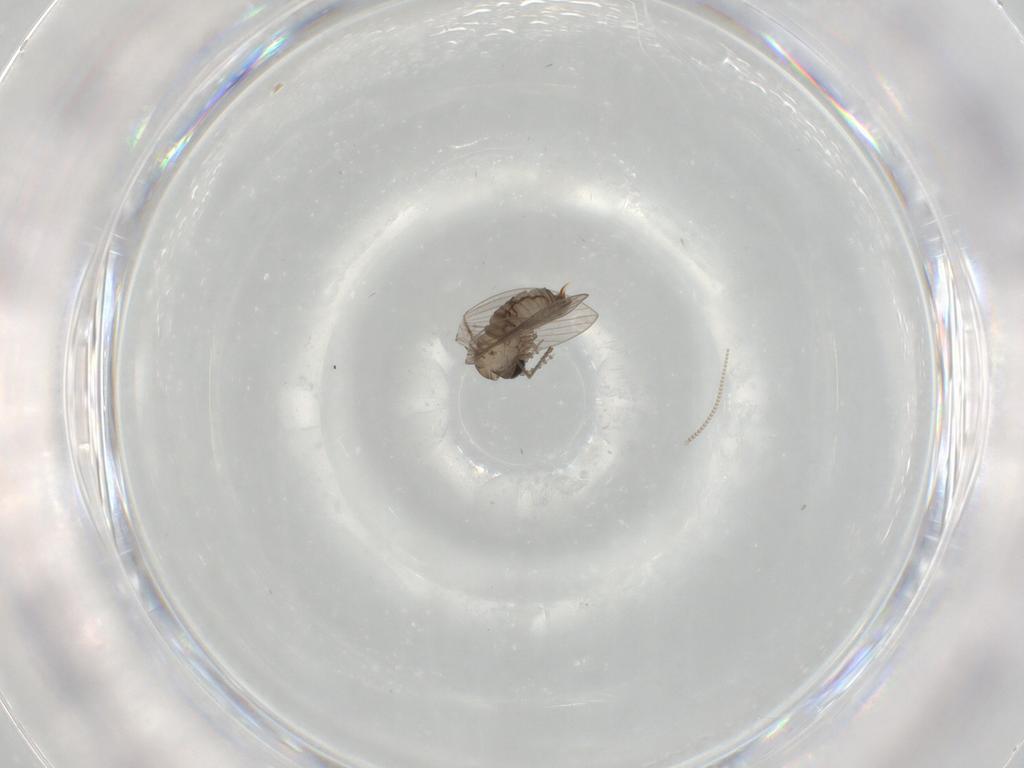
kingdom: Animalia
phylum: Arthropoda
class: Insecta
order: Diptera
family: Psychodidae
